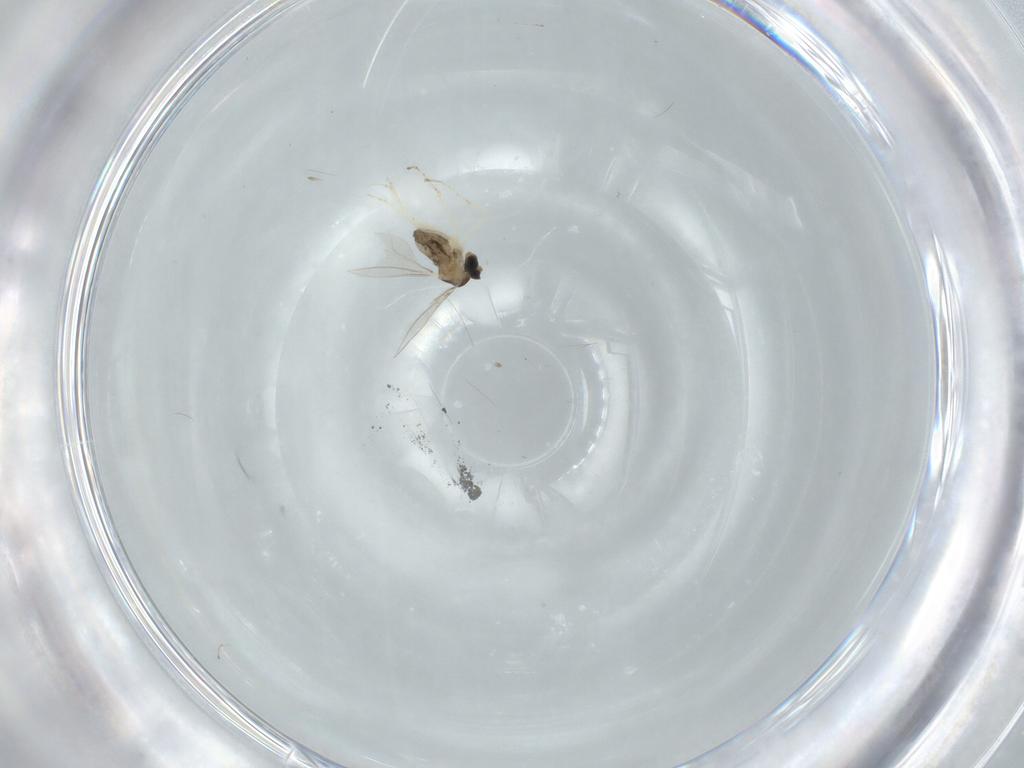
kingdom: Animalia
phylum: Arthropoda
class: Insecta
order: Diptera
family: Cecidomyiidae
